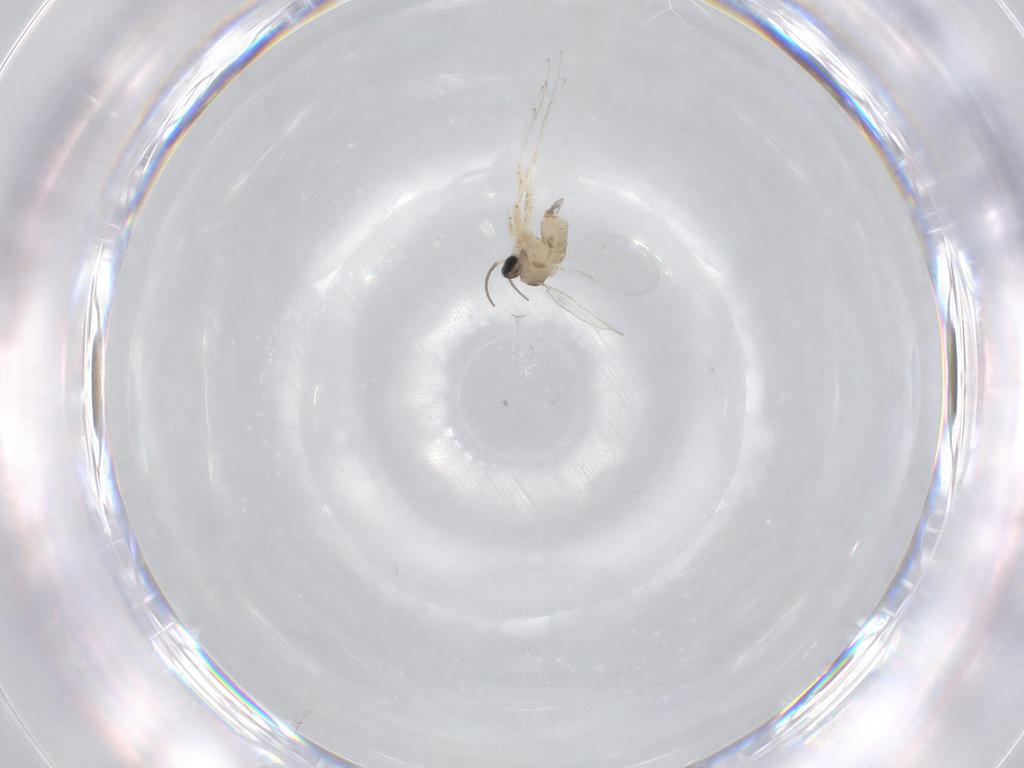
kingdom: Animalia
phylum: Arthropoda
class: Insecta
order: Diptera
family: Cecidomyiidae
